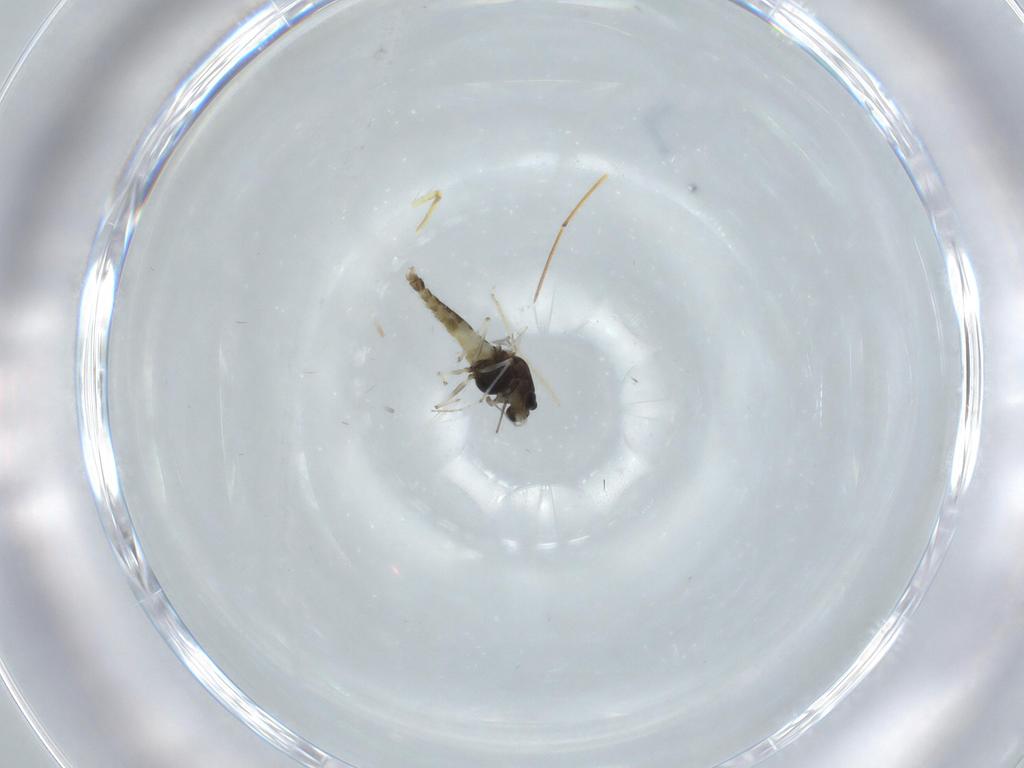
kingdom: Animalia
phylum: Arthropoda
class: Insecta
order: Diptera
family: Chironomidae
